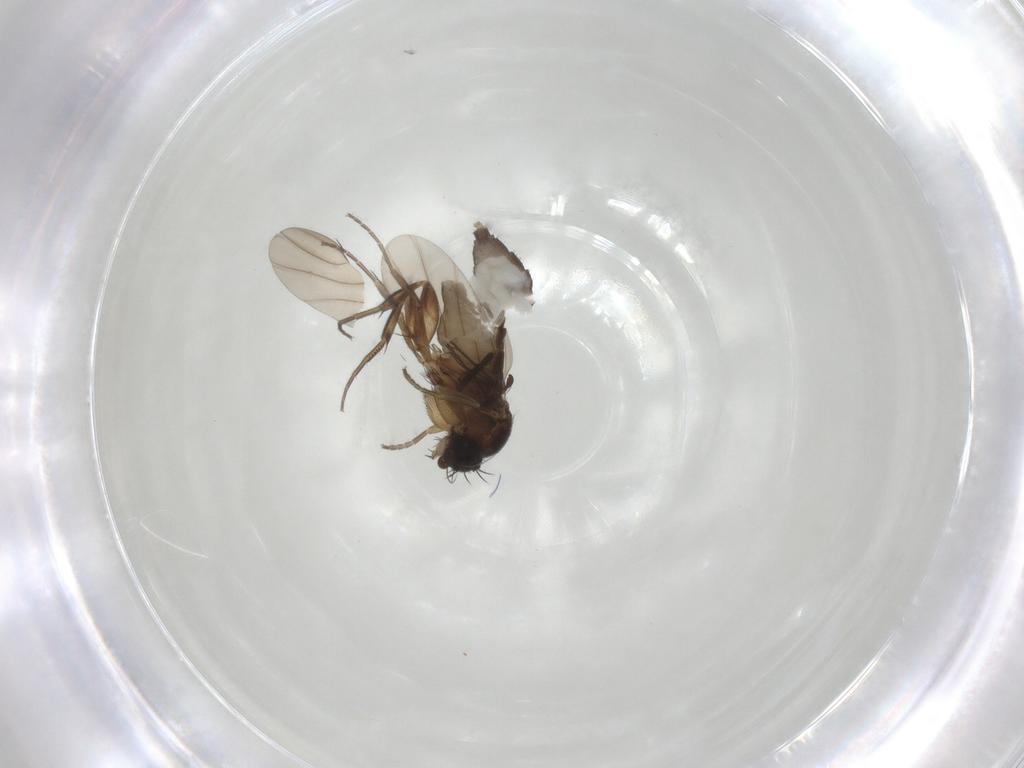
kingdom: Animalia
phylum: Arthropoda
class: Insecta
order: Diptera
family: Phoridae
